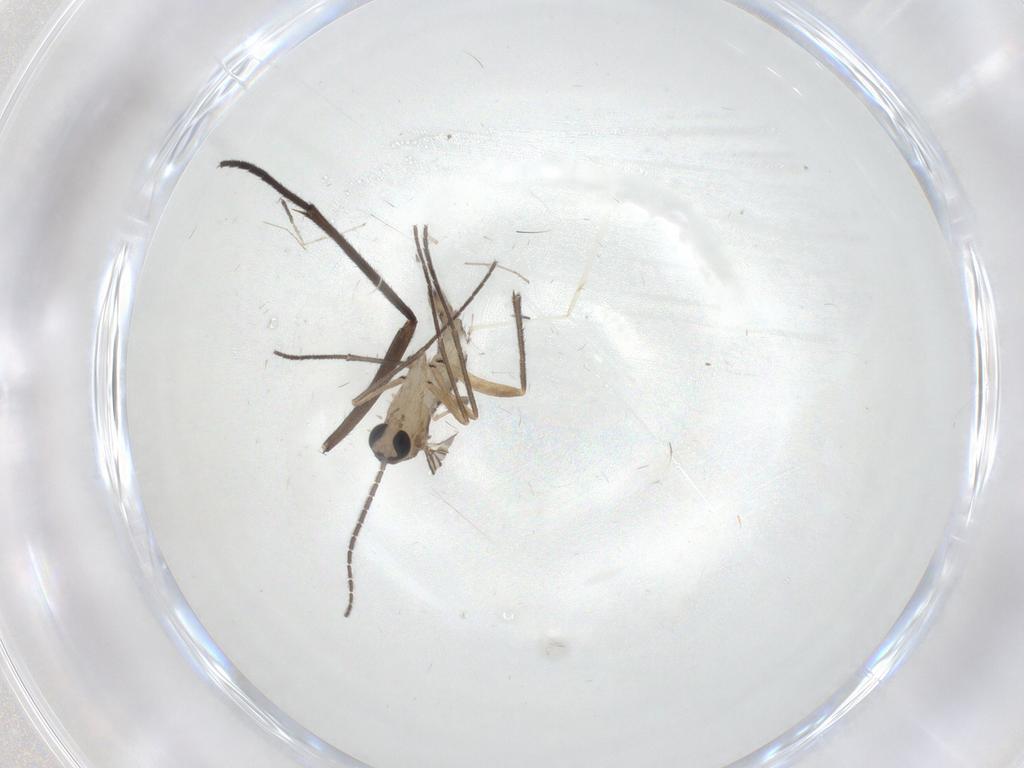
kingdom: Animalia
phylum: Arthropoda
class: Insecta
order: Diptera
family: Sciaridae
